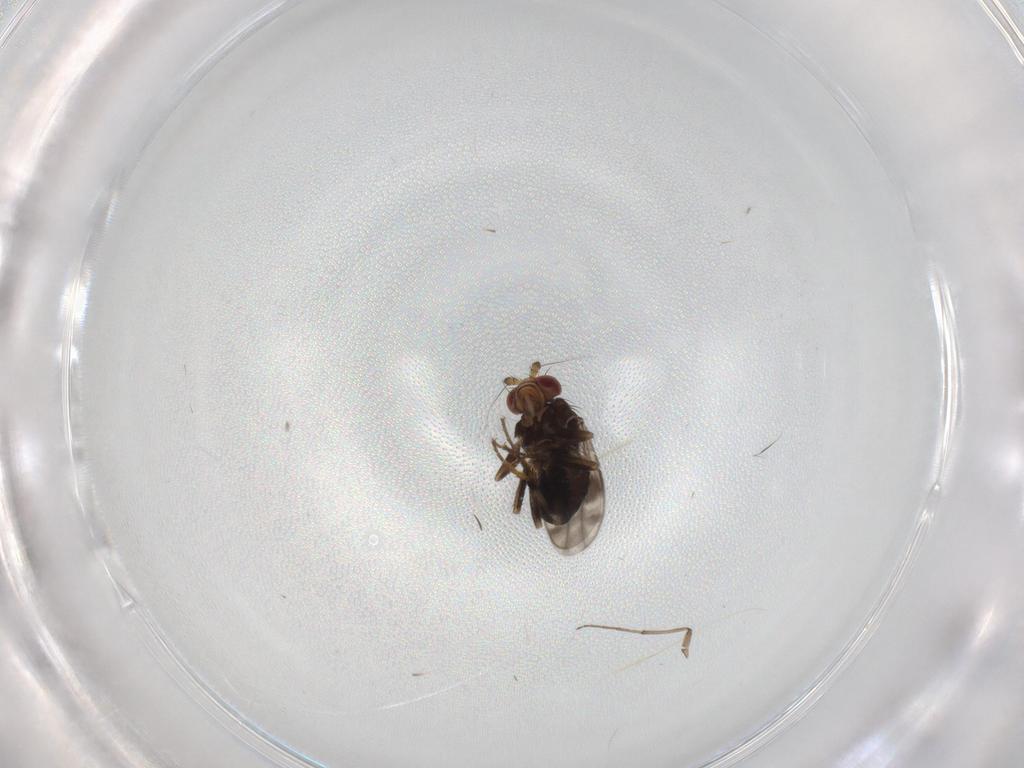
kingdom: Animalia
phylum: Arthropoda
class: Insecta
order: Diptera
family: Sphaeroceridae
